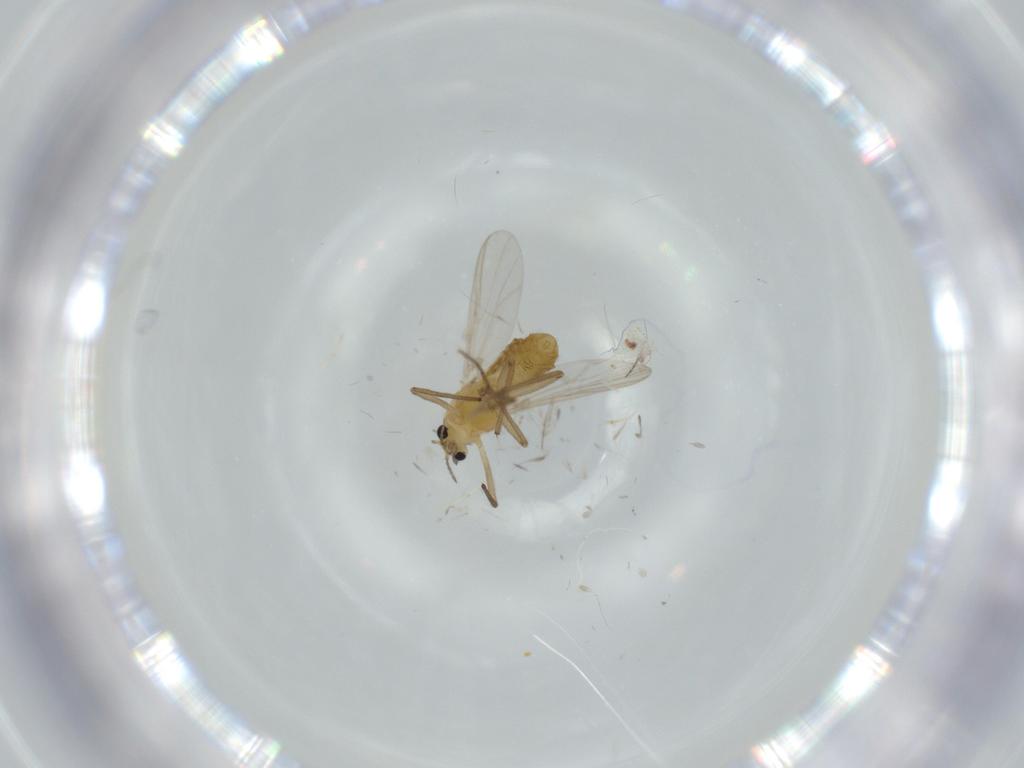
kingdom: Animalia
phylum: Arthropoda
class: Insecta
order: Diptera
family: Chironomidae
